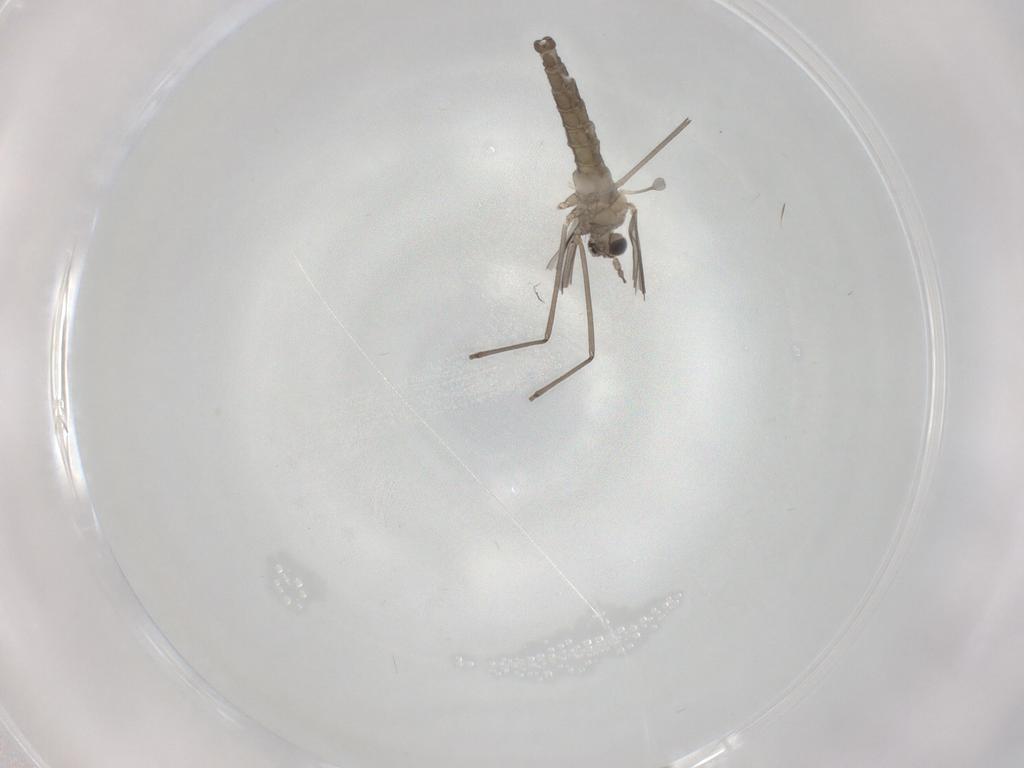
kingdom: Animalia
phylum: Arthropoda
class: Insecta
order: Diptera
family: Cecidomyiidae
